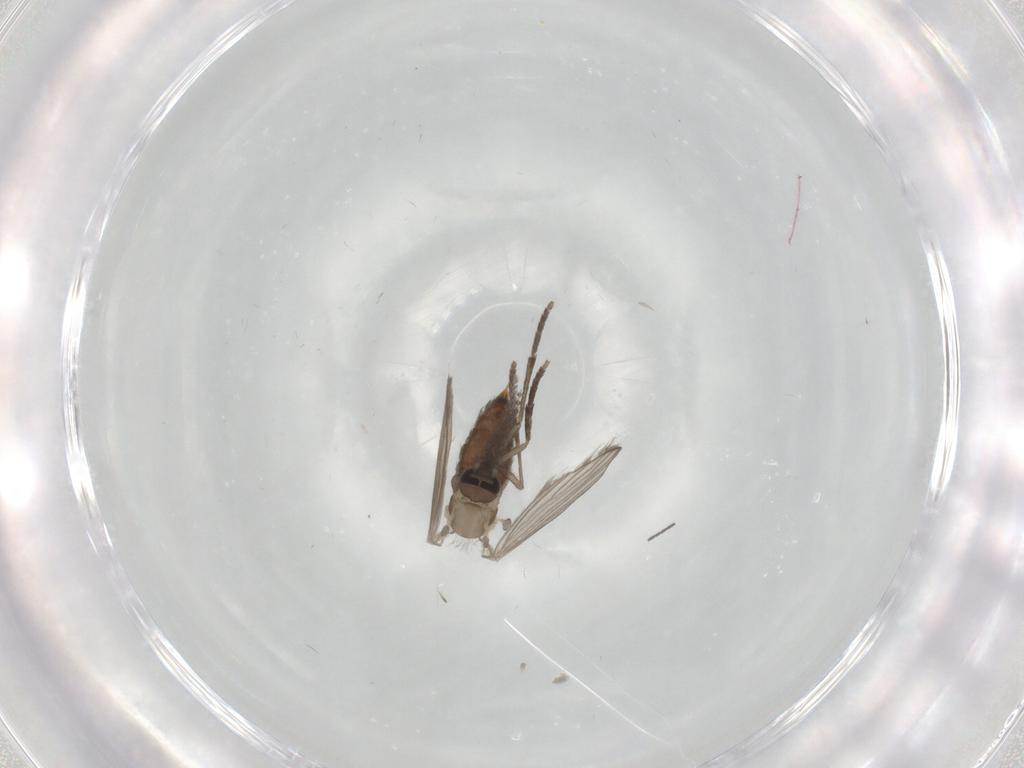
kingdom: Animalia
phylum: Arthropoda
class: Insecta
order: Diptera
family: Psychodidae
